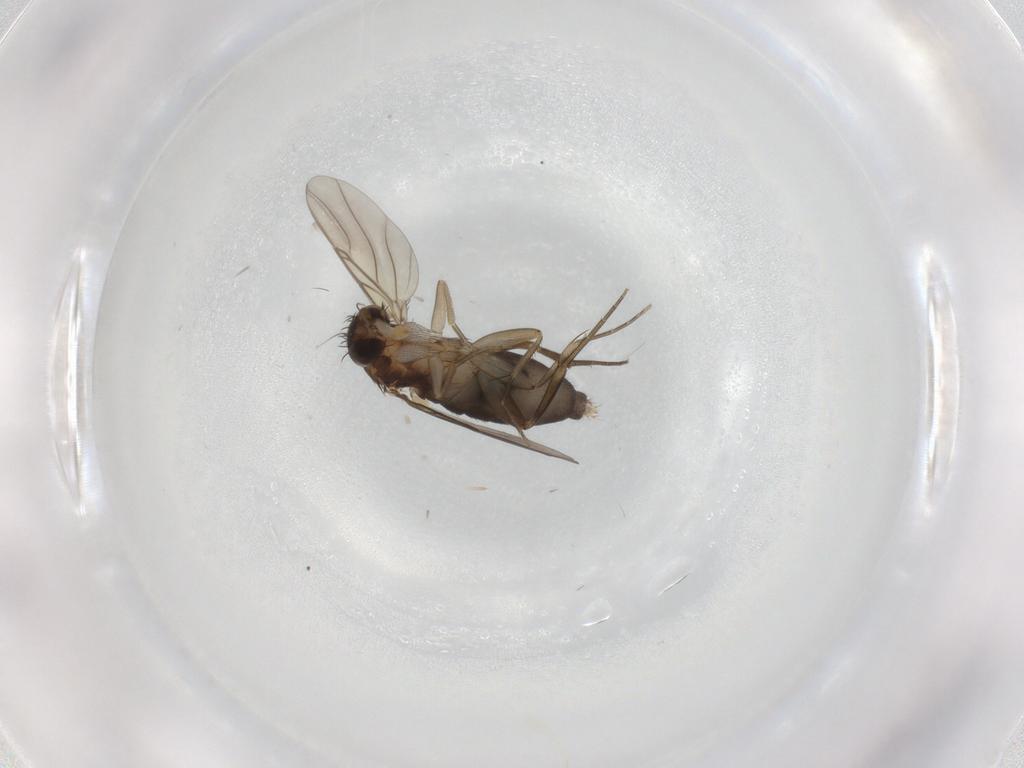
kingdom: Animalia
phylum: Arthropoda
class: Insecta
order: Diptera
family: Phoridae
